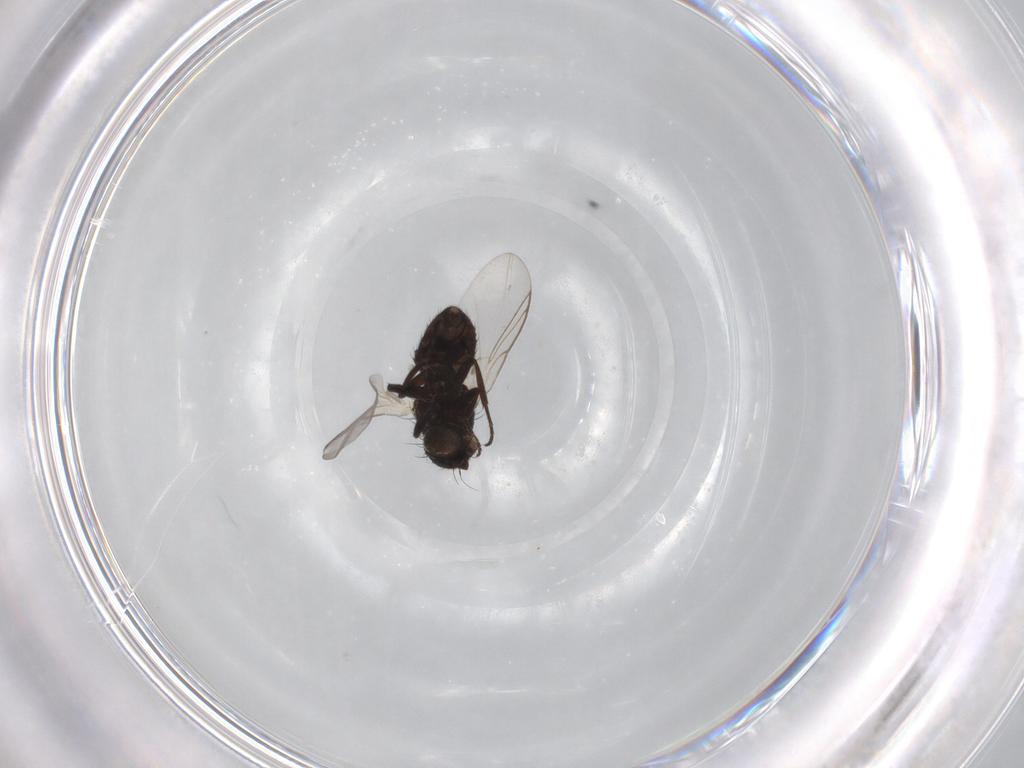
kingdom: Animalia
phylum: Arthropoda
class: Insecta
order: Diptera
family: Agromyzidae
